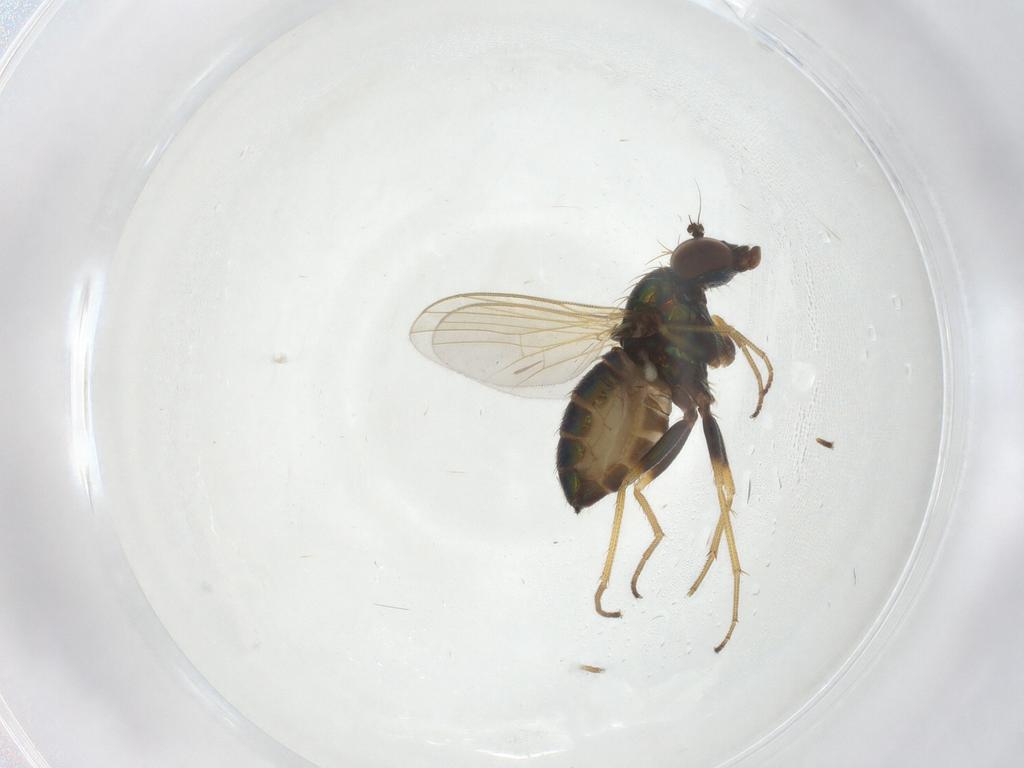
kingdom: Animalia
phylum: Arthropoda
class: Insecta
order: Diptera
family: Dolichopodidae
